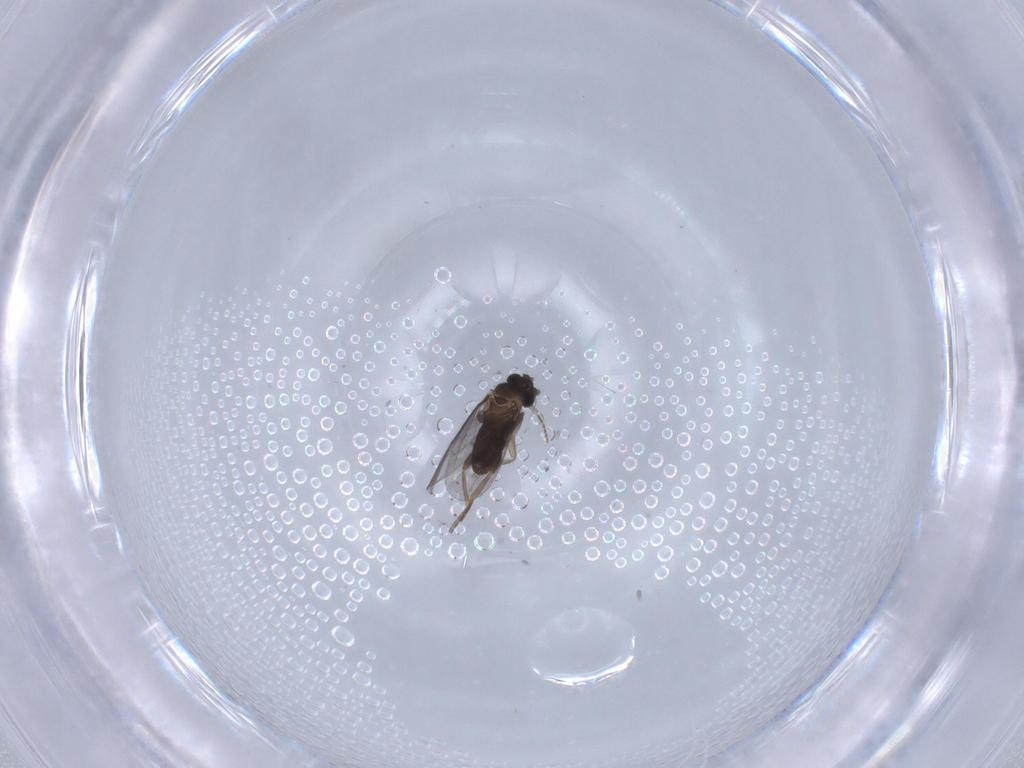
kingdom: Animalia
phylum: Arthropoda
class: Insecta
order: Diptera
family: Chironomidae
